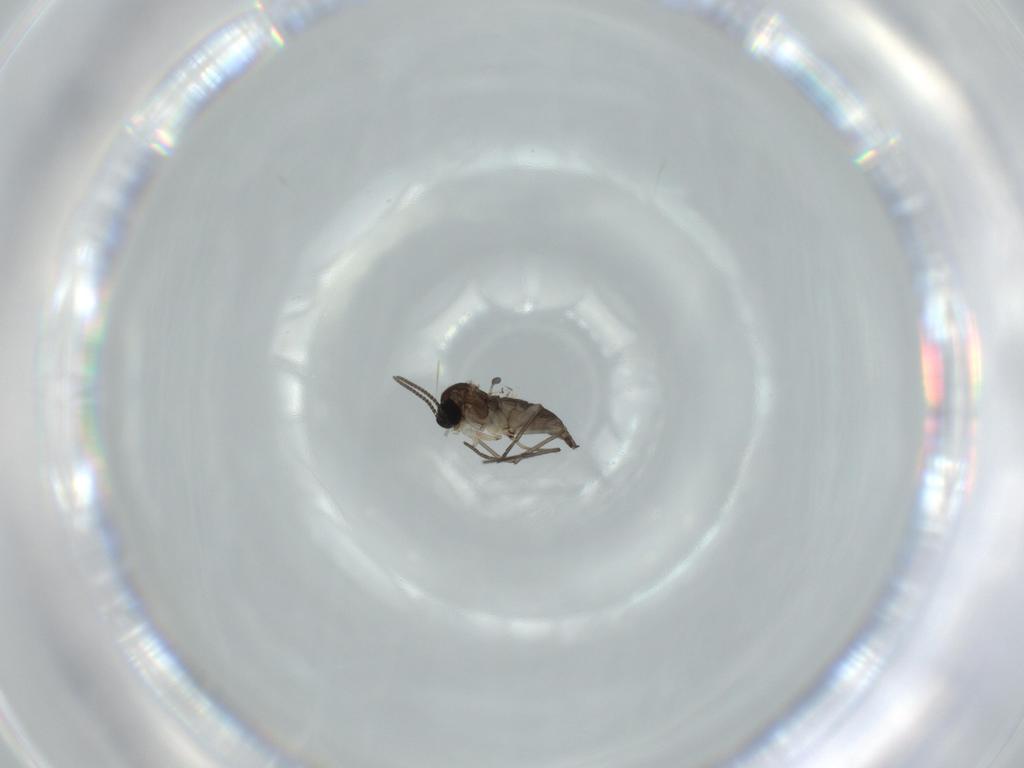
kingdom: Animalia
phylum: Arthropoda
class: Insecta
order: Diptera
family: Sciaridae
